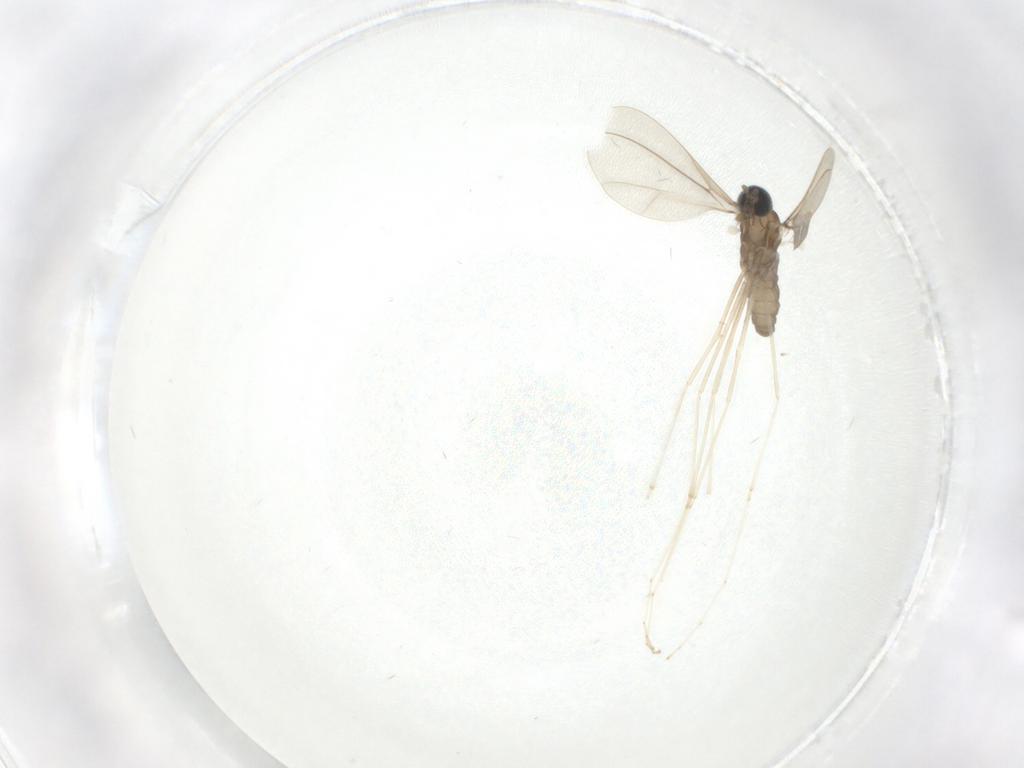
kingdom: Animalia
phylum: Arthropoda
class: Insecta
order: Diptera
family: Cecidomyiidae
